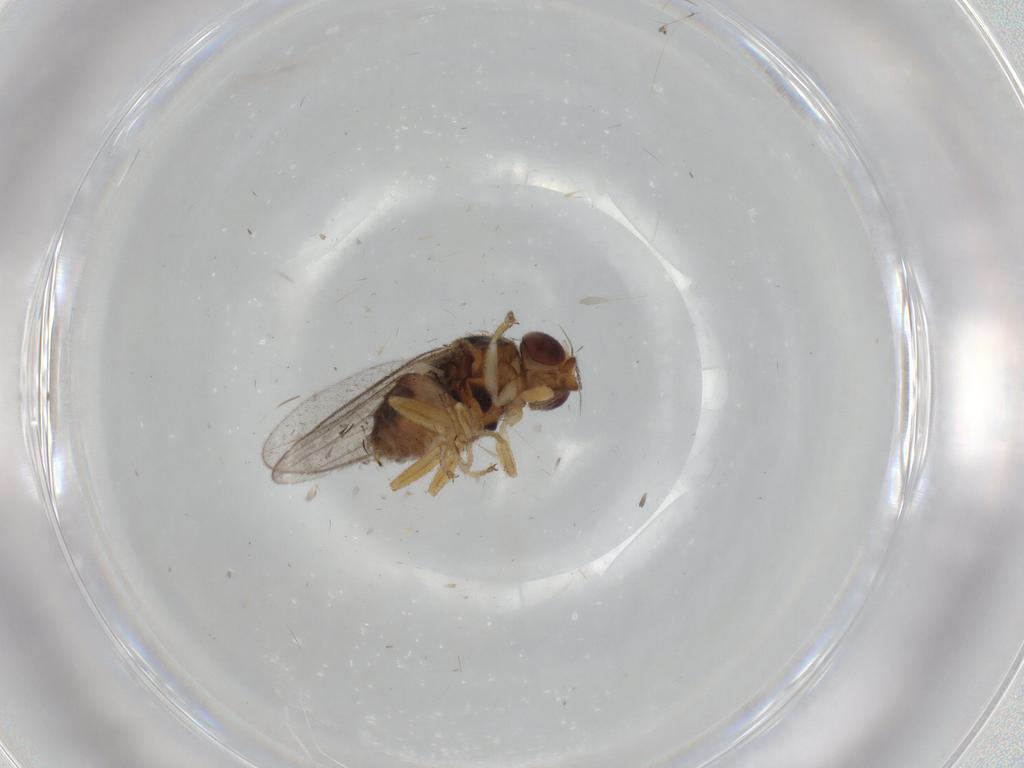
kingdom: Animalia
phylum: Arthropoda
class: Insecta
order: Diptera
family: Chloropidae
